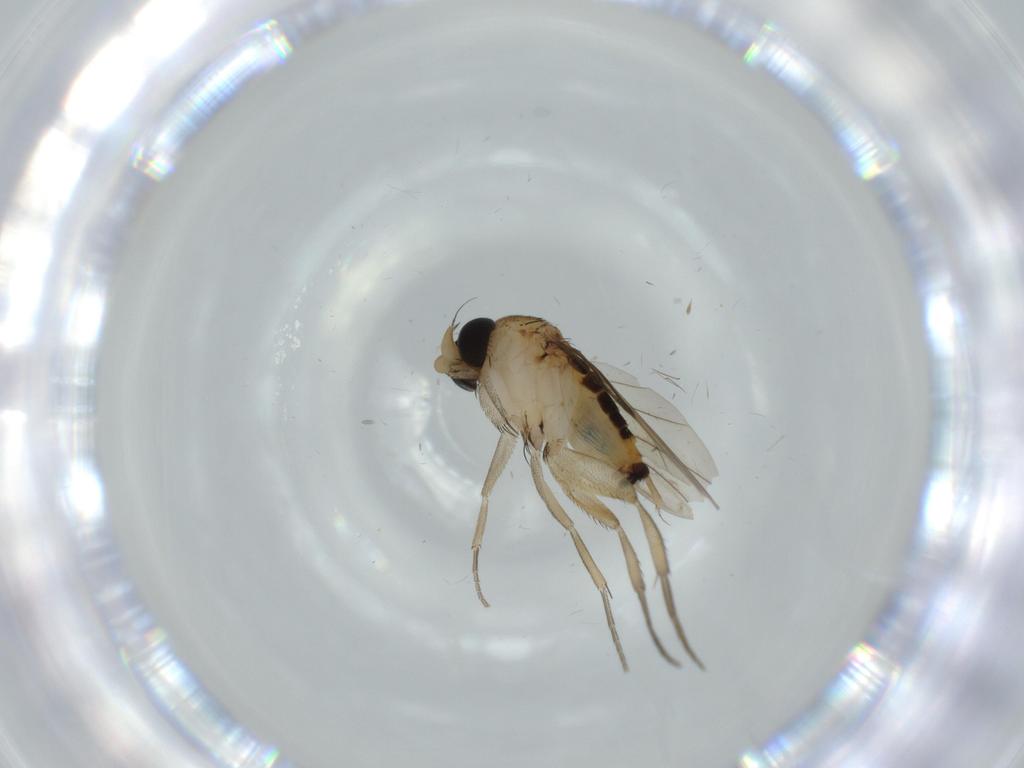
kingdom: Animalia
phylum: Arthropoda
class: Insecta
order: Diptera
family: Phoridae
